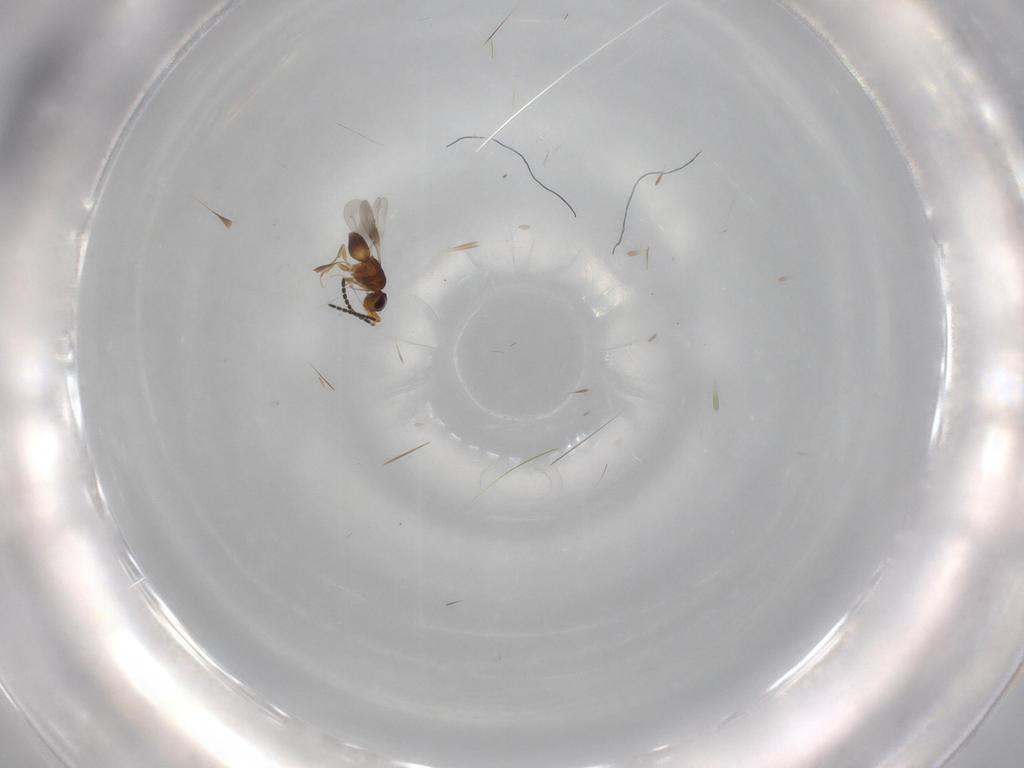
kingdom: Animalia
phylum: Arthropoda
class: Insecta
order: Hymenoptera
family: Ceraphronidae
